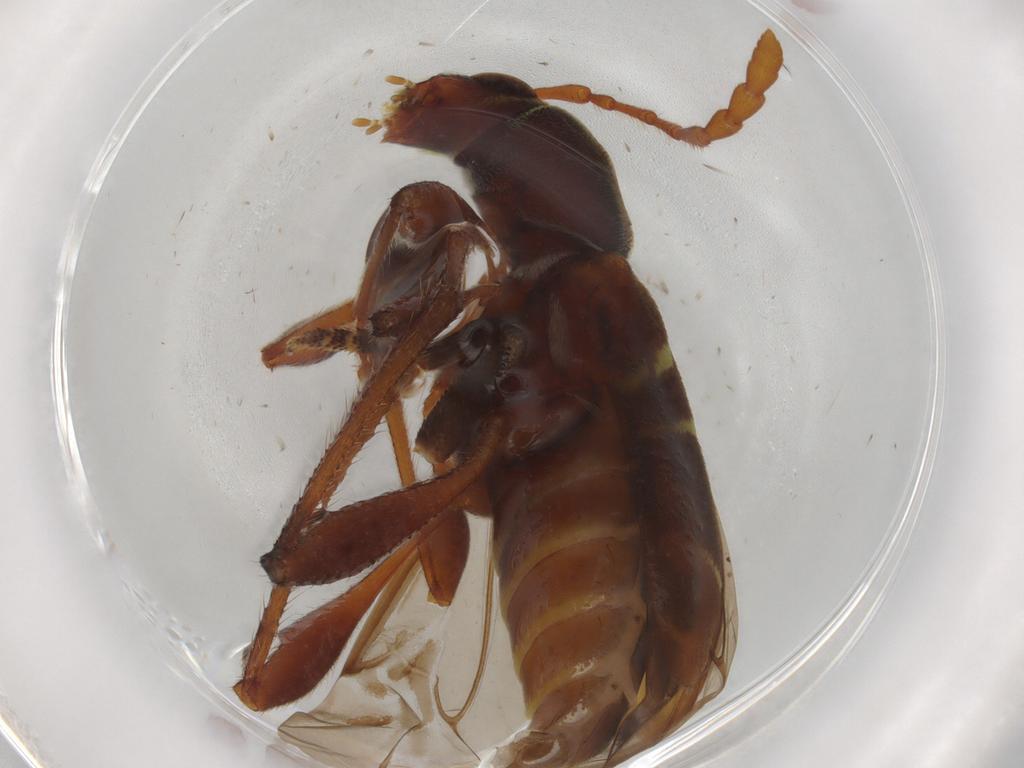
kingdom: Animalia
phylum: Arthropoda
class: Insecta
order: Coleoptera
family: Cerambycidae
